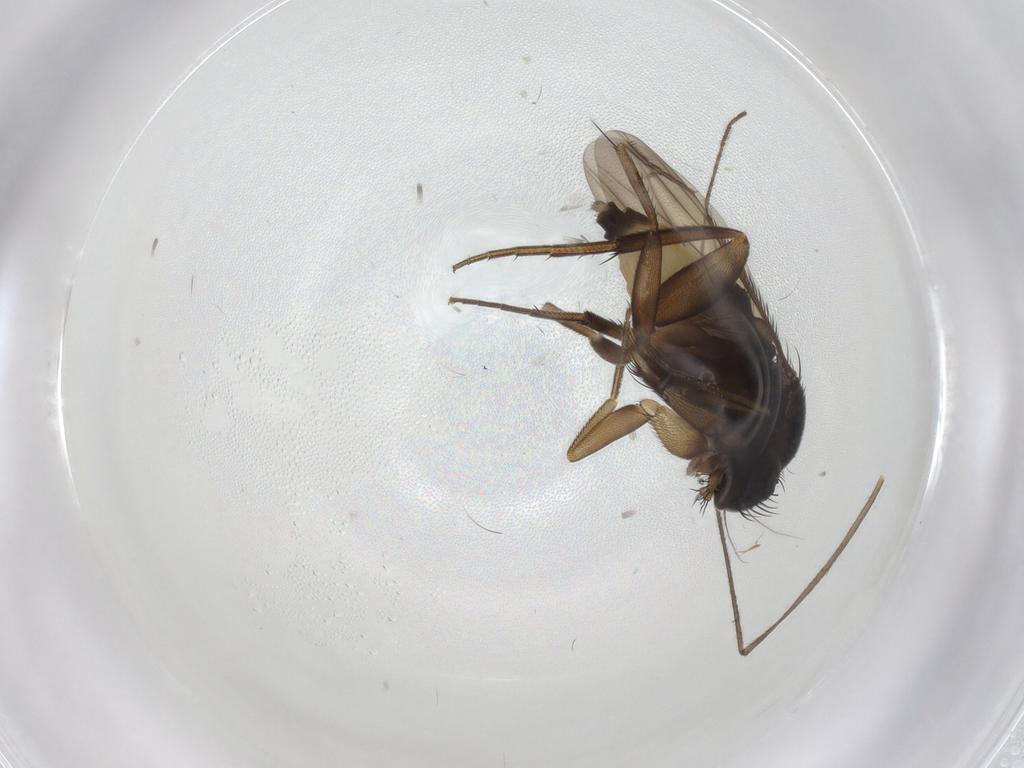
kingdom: Animalia
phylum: Arthropoda
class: Insecta
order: Diptera
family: Phoridae
